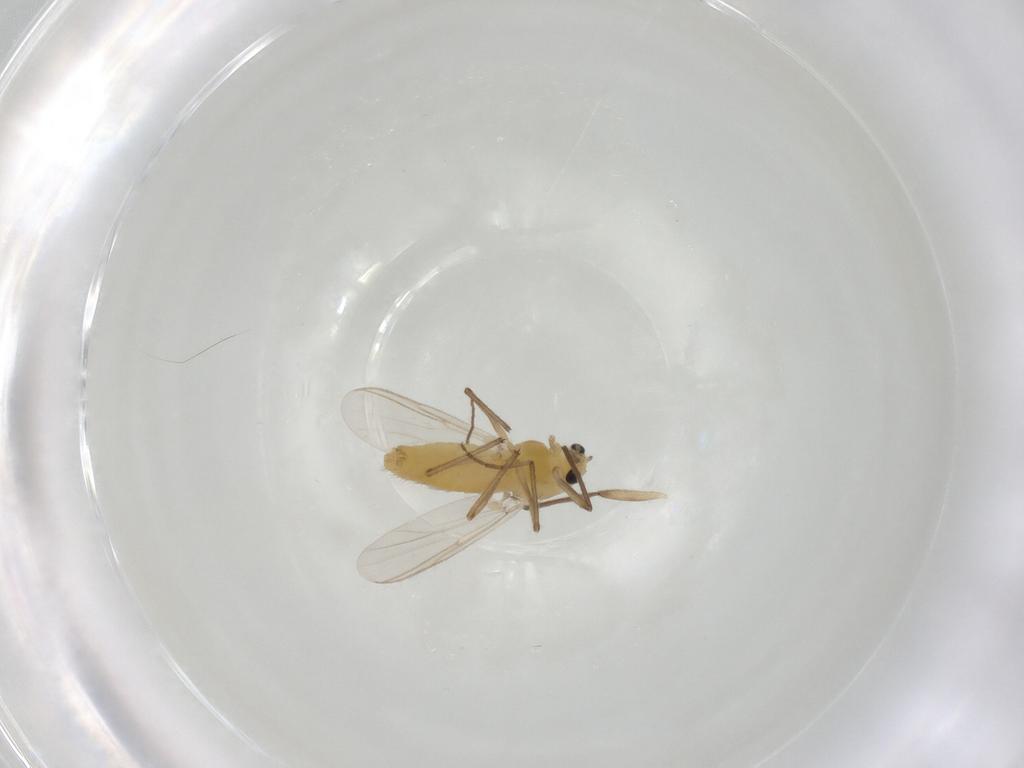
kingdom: Animalia
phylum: Arthropoda
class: Insecta
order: Diptera
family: Chironomidae
